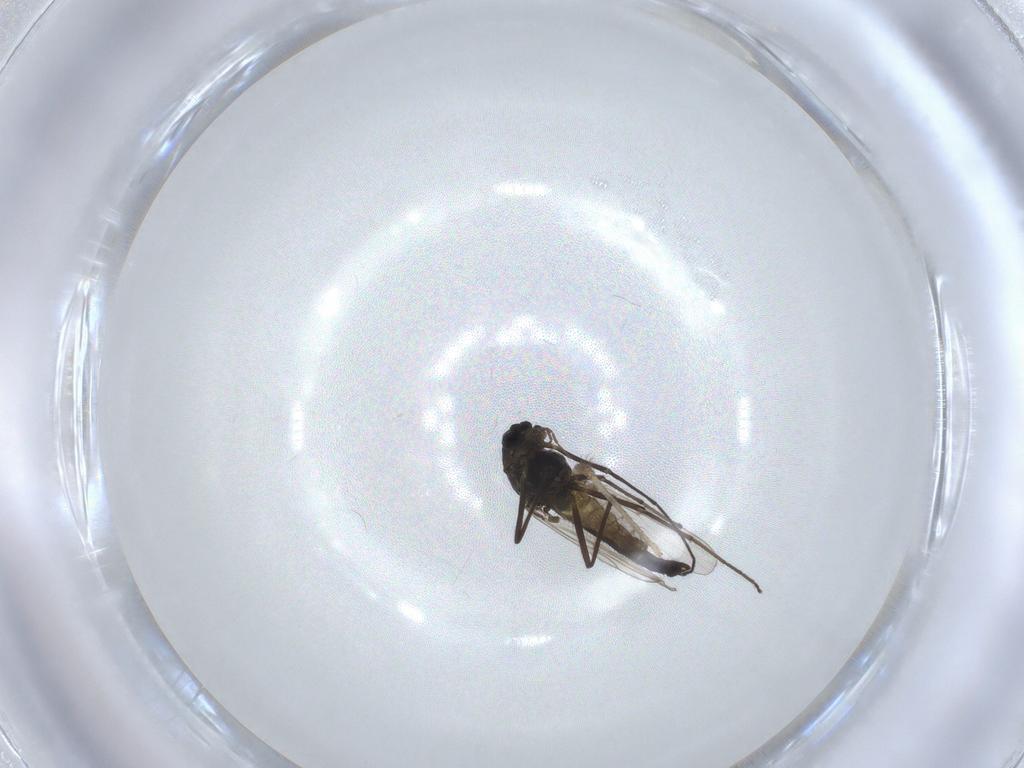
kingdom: Animalia
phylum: Arthropoda
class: Insecta
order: Diptera
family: Chironomidae
